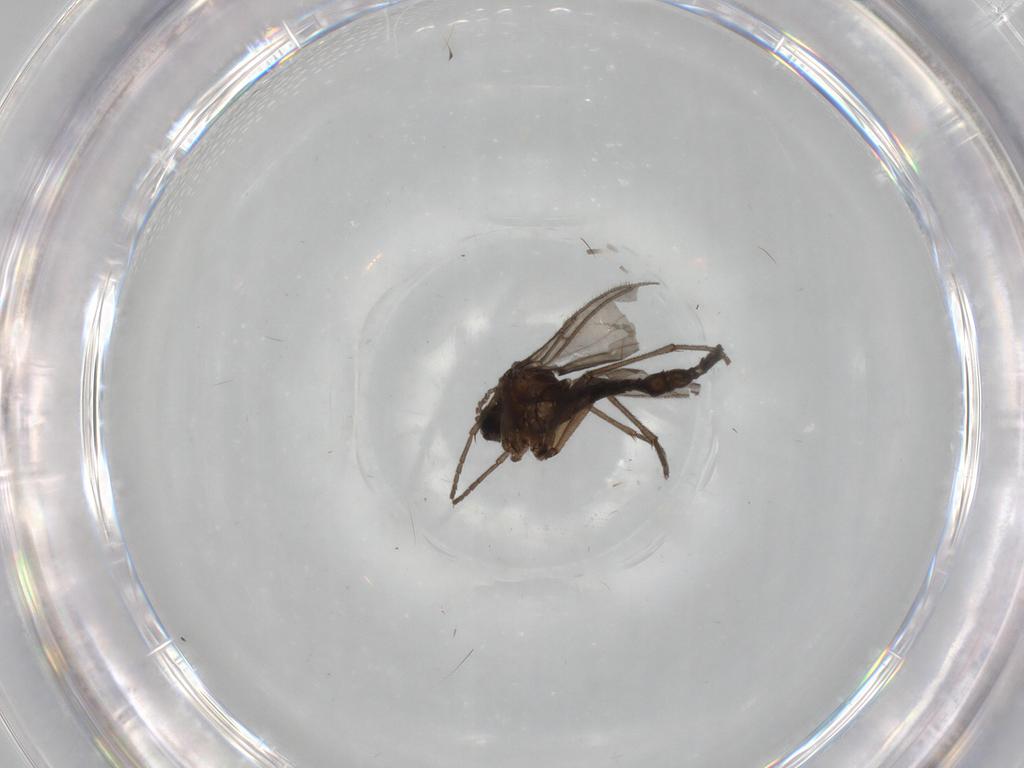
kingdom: Animalia
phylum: Arthropoda
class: Insecta
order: Diptera
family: Sciaridae
